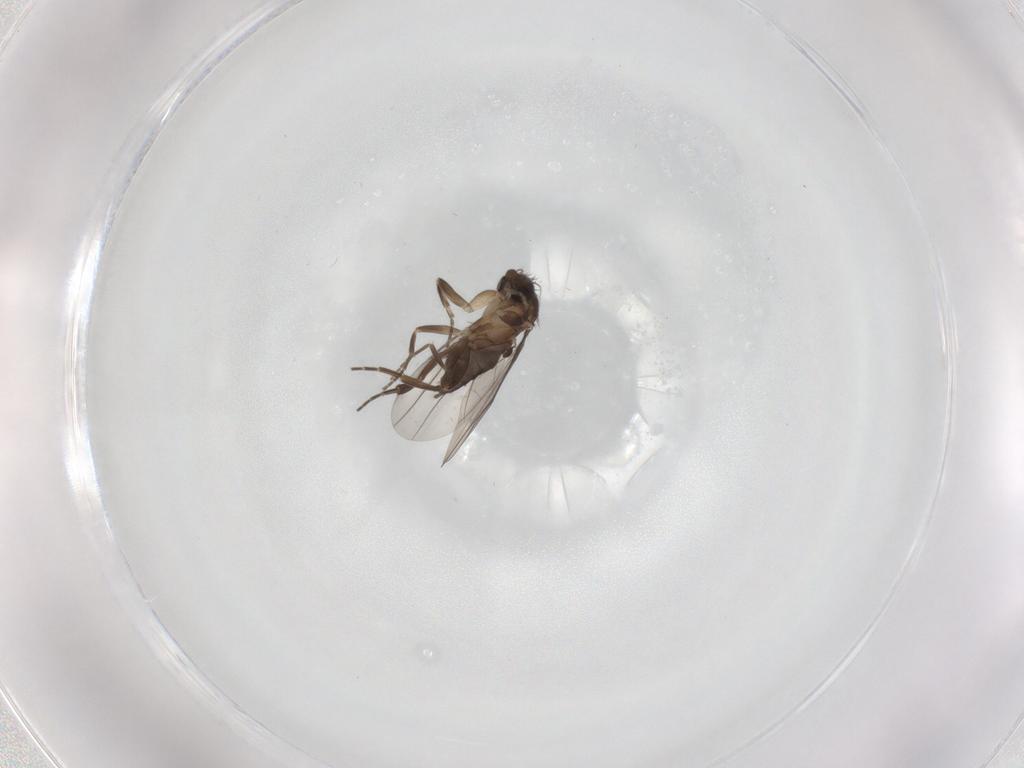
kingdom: Animalia
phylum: Arthropoda
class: Insecta
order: Diptera
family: Phoridae
